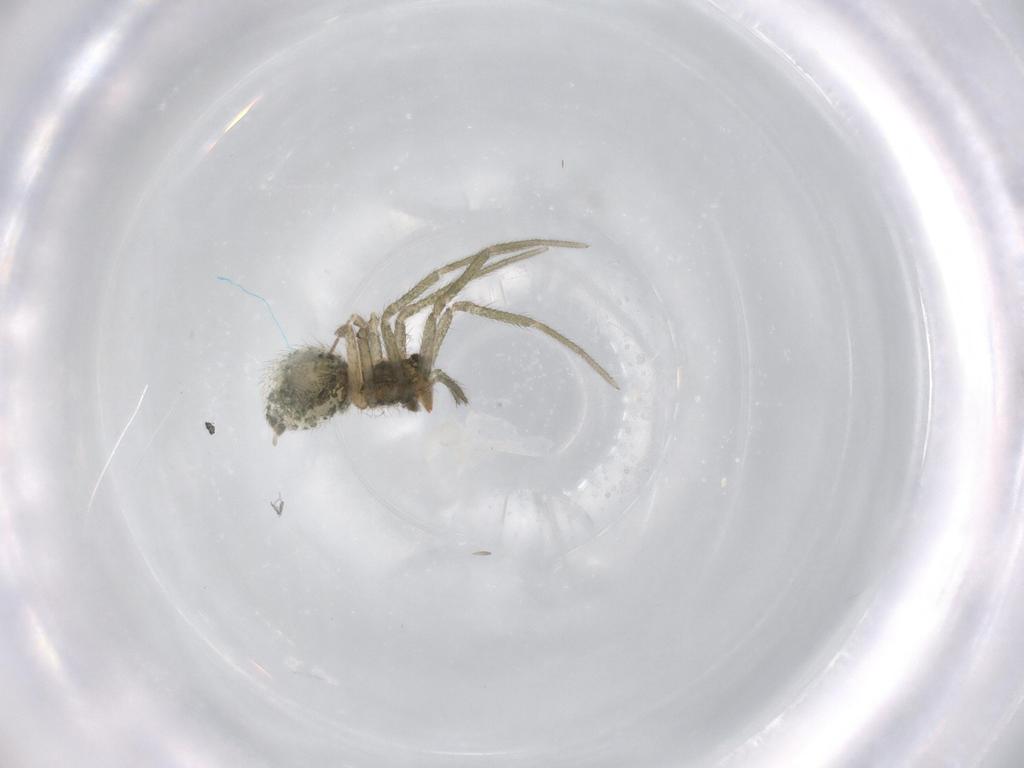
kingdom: Animalia
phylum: Arthropoda
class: Arachnida
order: Araneae
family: Linyphiidae
